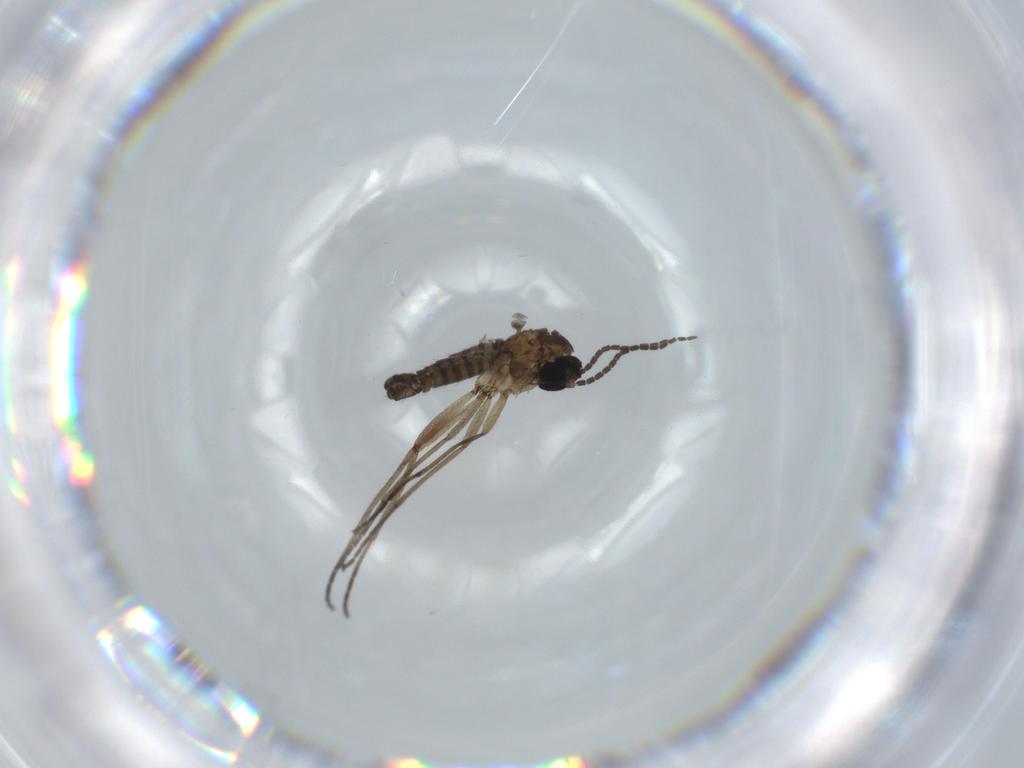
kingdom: Animalia
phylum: Arthropoda
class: Insecta
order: Diptera
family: Sciaridae
